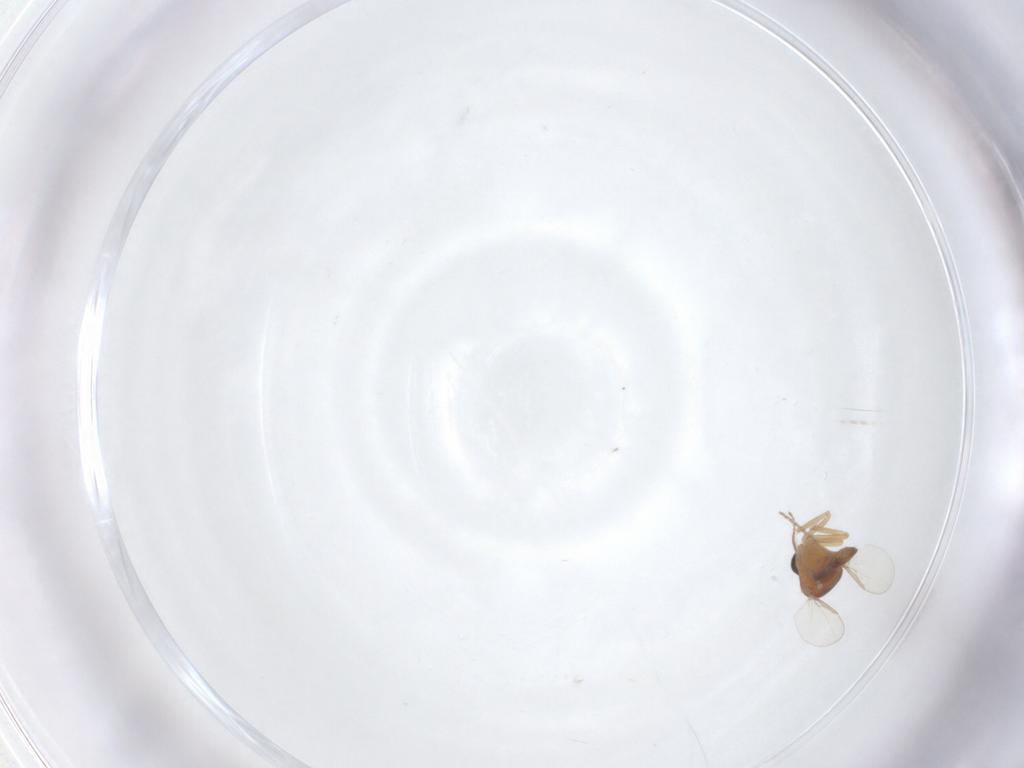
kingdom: Animalia
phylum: Arthropoda
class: Insecta
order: Diptera
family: Ceratopogonidae
